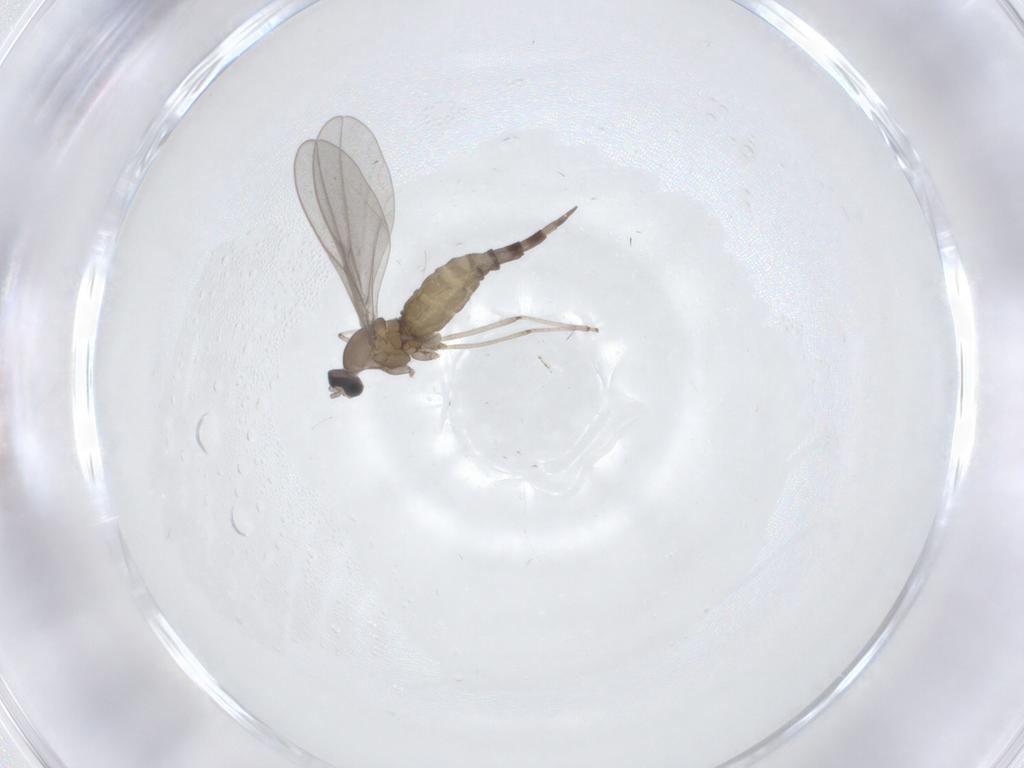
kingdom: Animalia
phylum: Arthropoda
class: Insecta
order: Diptera
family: Cecidomyiidae
